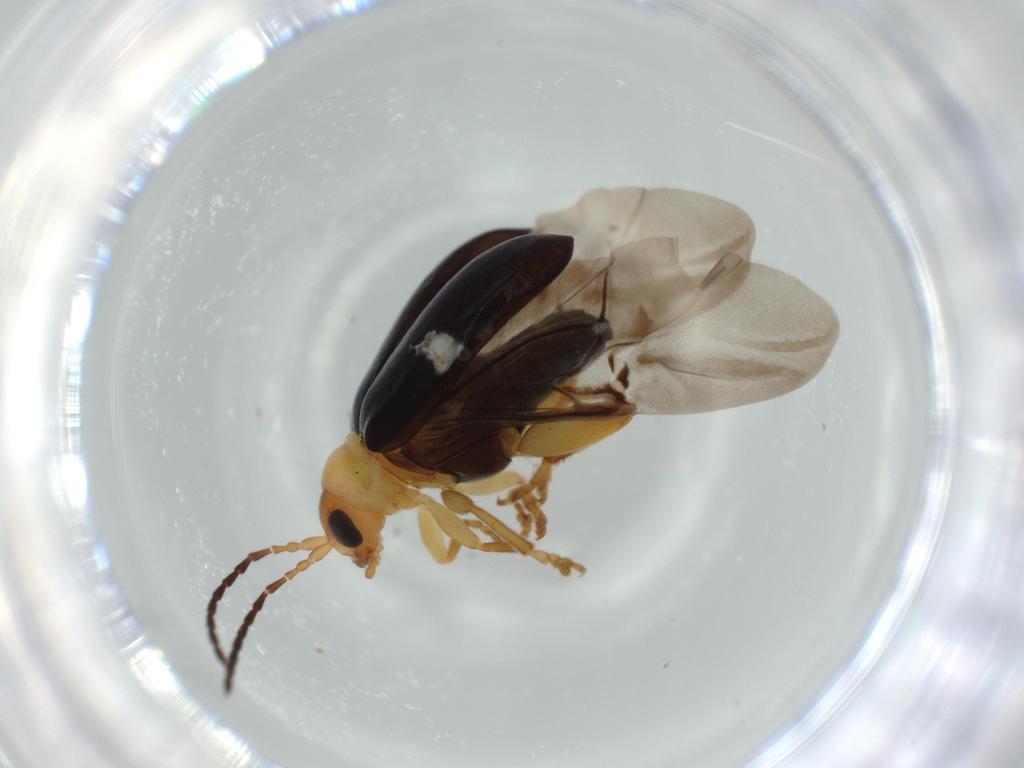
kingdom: Animalia
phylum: Arthropoda
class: Insecta
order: Coleoptera
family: Chrysomelidae
